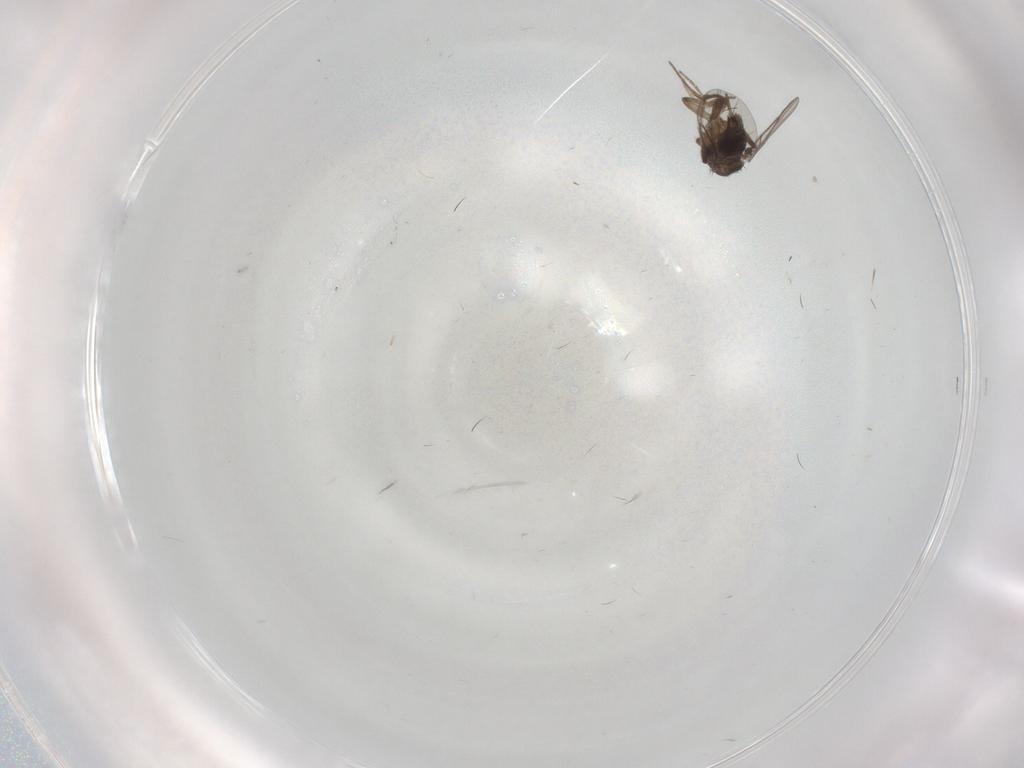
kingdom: Animalia
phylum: Arthropoda
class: Insecta
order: Diptera
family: Phoridae
